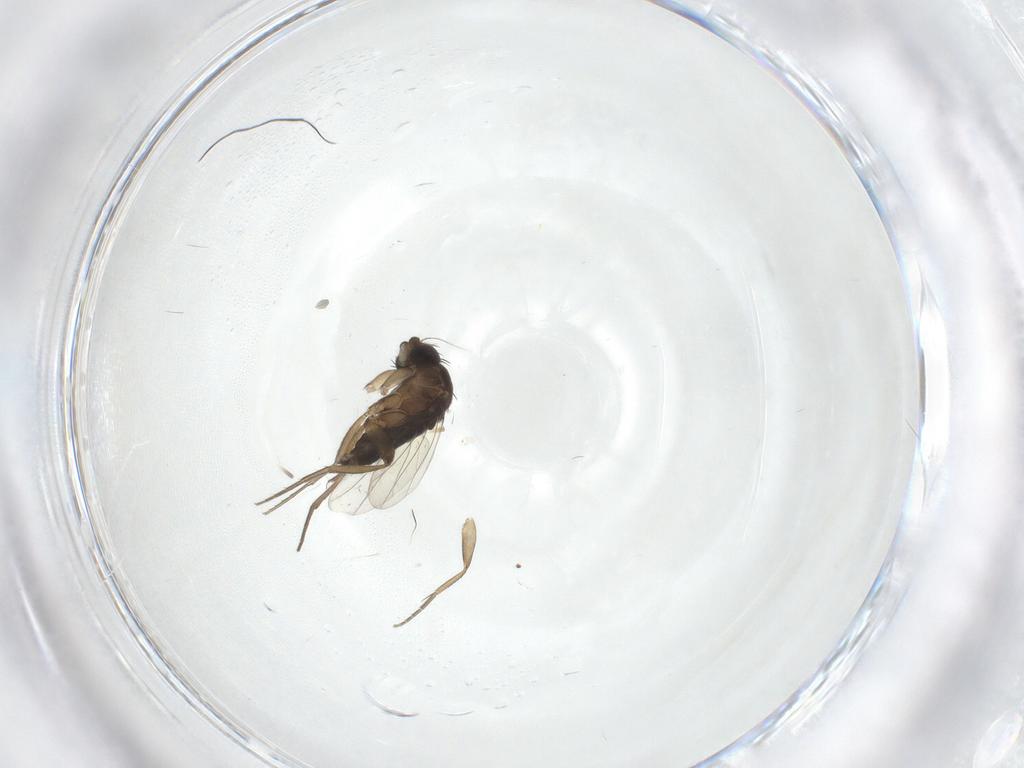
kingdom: Animalia
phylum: Arthropoda
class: Insecta
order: Diptera
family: Phoridae
